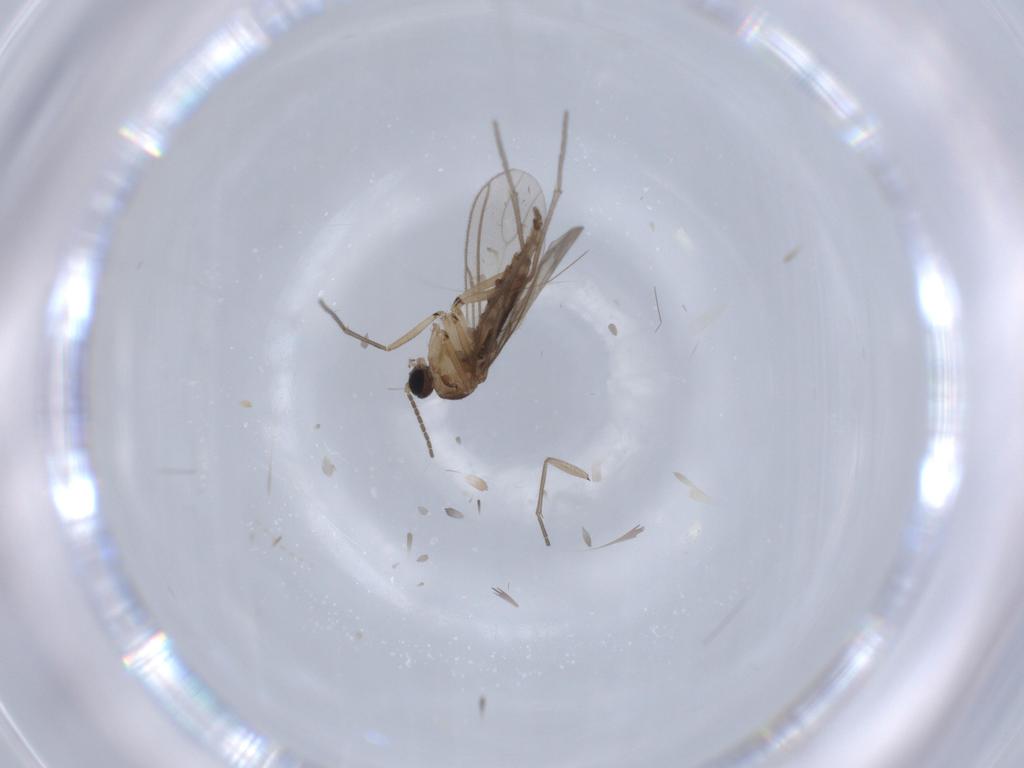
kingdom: Animalia
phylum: Arthropoda
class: Insecta
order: Diptera
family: Sciaridae
